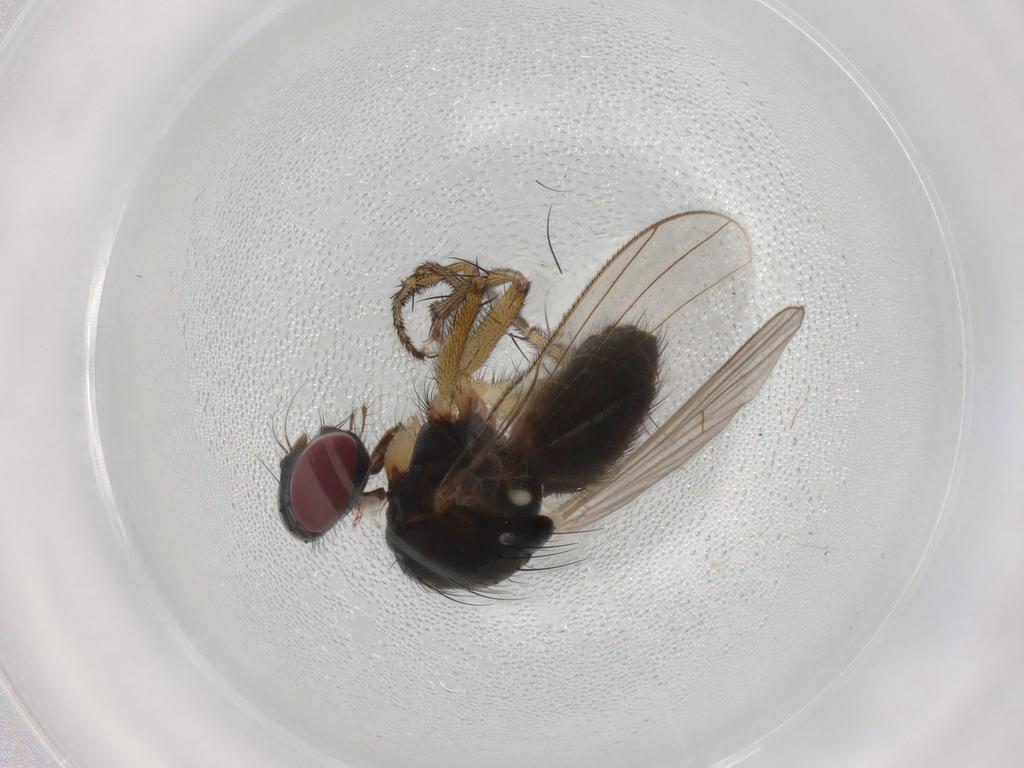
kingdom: Animalia
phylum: Arthropoda
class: Insecta
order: Diptera
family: Muscidae
